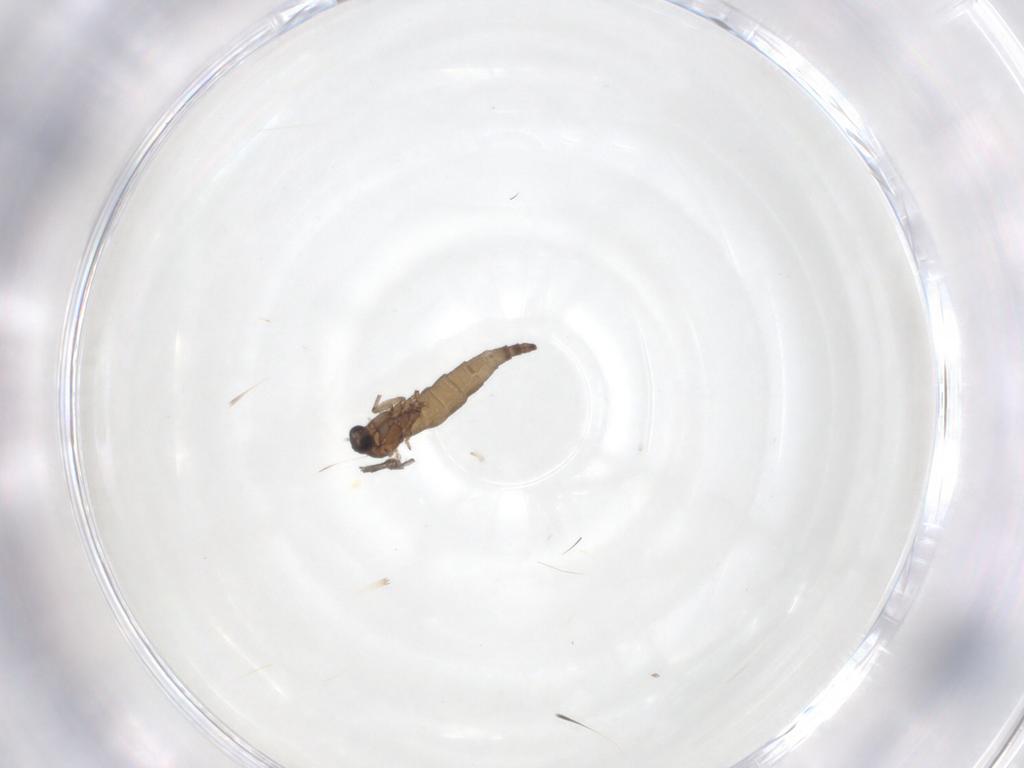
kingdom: Animalia
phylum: Arthropoda
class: Insecta
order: Diptera
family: Sciaridae
